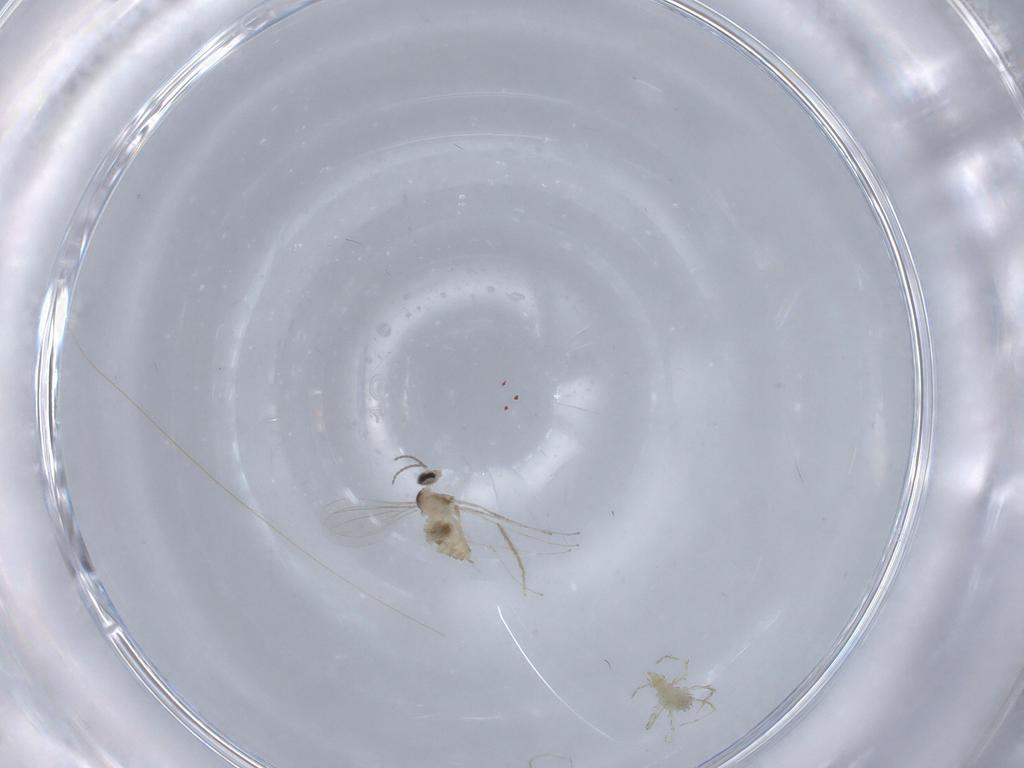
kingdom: Animalia
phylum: Arthropoda
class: Insecta
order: Diptera
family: Cecidomyiidae
